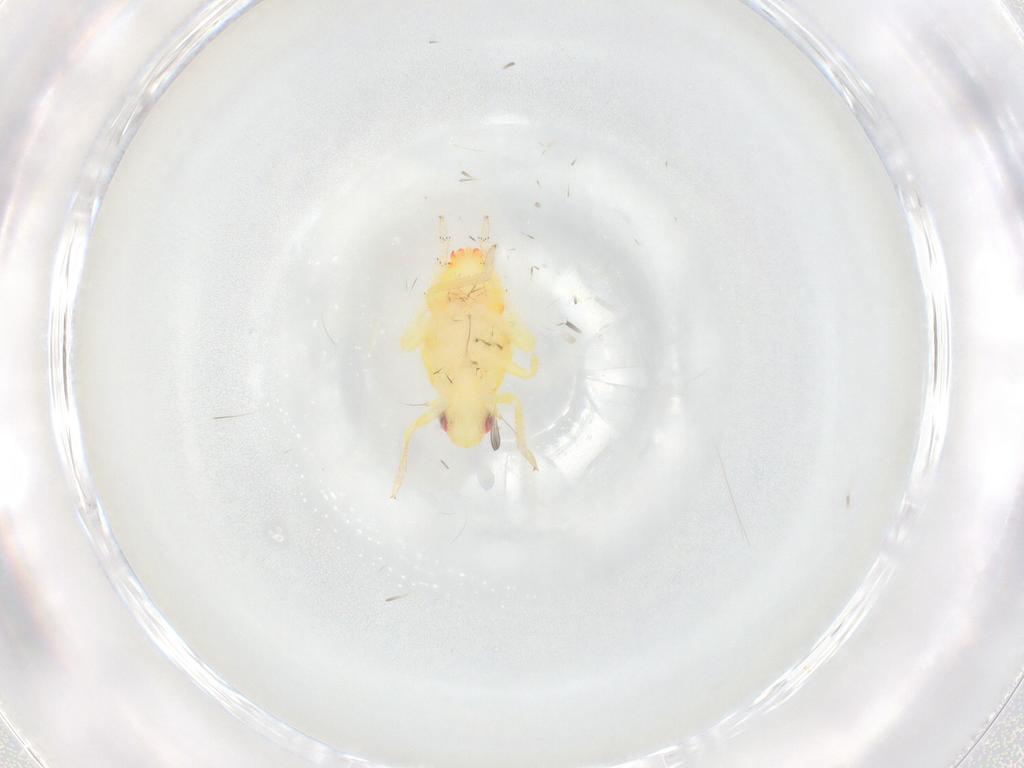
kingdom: Animalia
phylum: Arthropoda
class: Insecta
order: Hemiptera
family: Tropiduchidae
